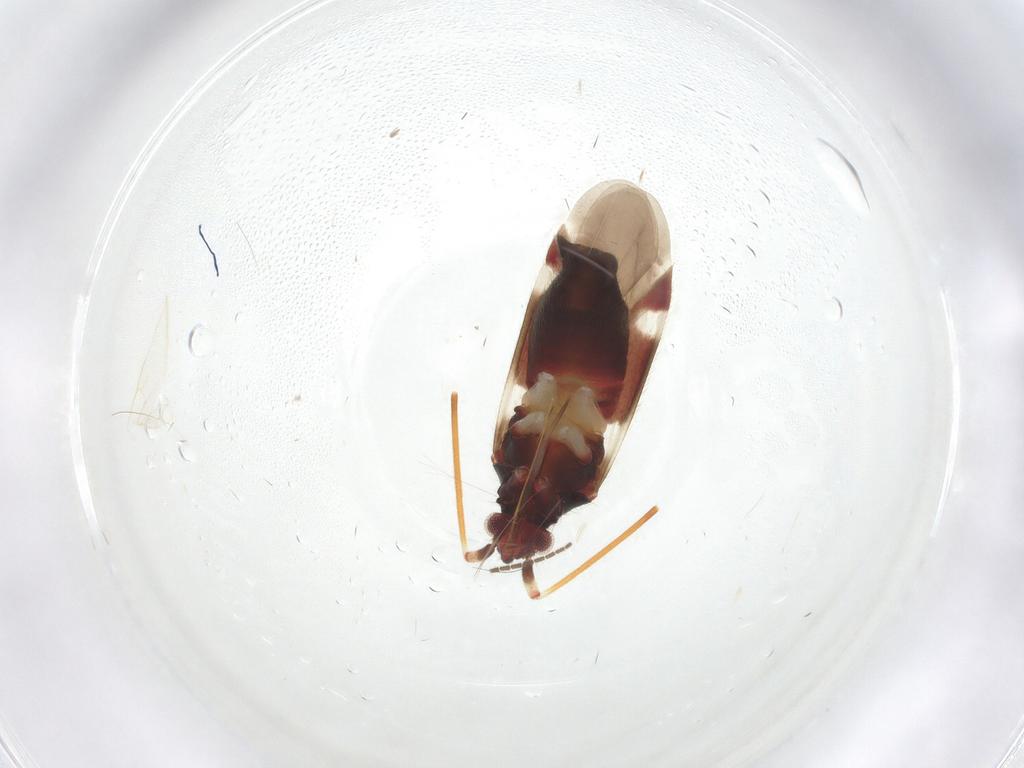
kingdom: Animalia
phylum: Arthropoda
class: Insecta
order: Hemiptera
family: Miridae
